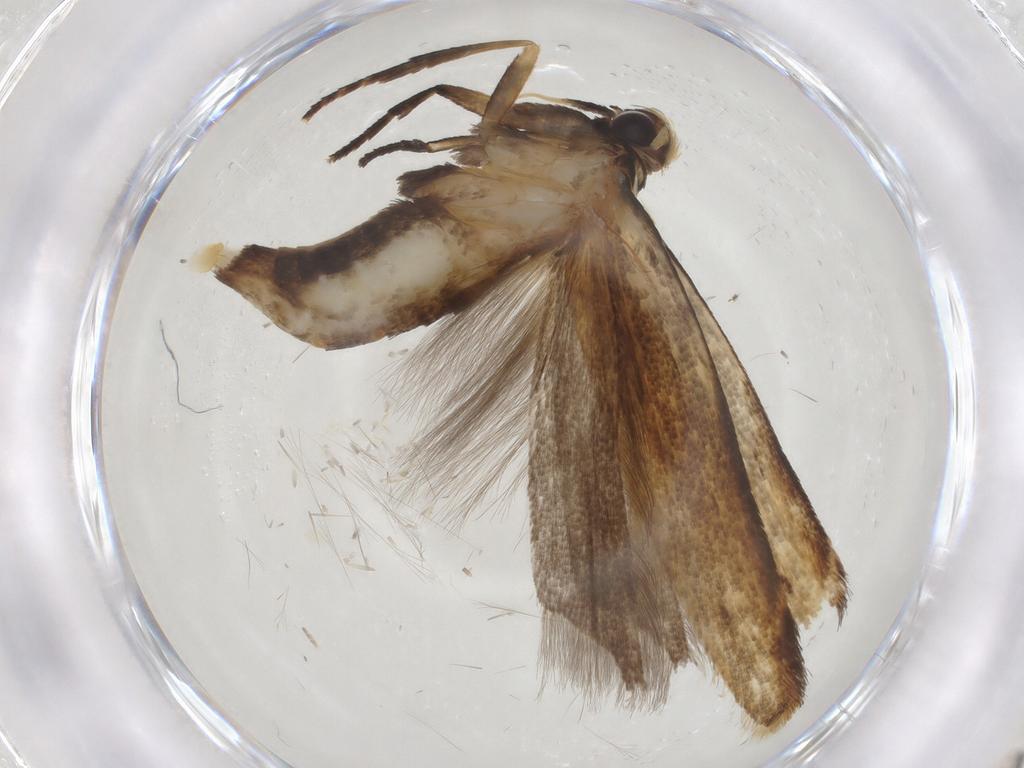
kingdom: Animalia
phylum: Arthropoda
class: Insecta
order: Lepidoptera
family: Gelechiidae
